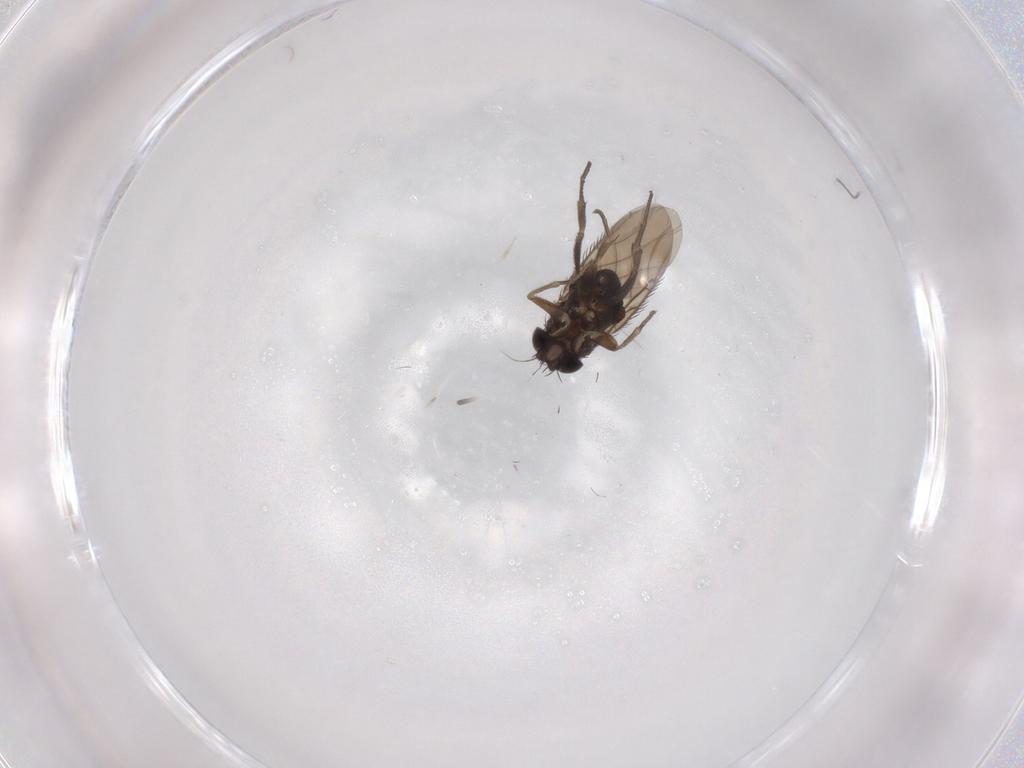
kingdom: Animalia
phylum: Arthropoda
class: Insecta
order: Diptera
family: Phoridae
